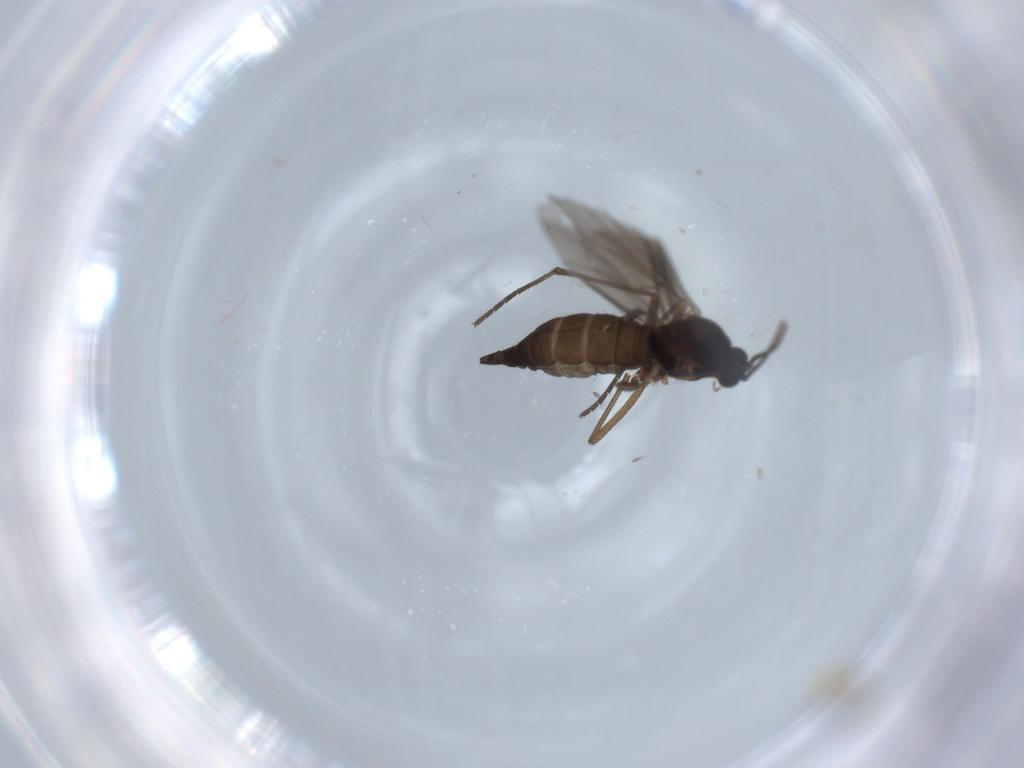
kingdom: Animalia
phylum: Arthropoda
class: Insecta
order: Diptera
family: Sciaridae
